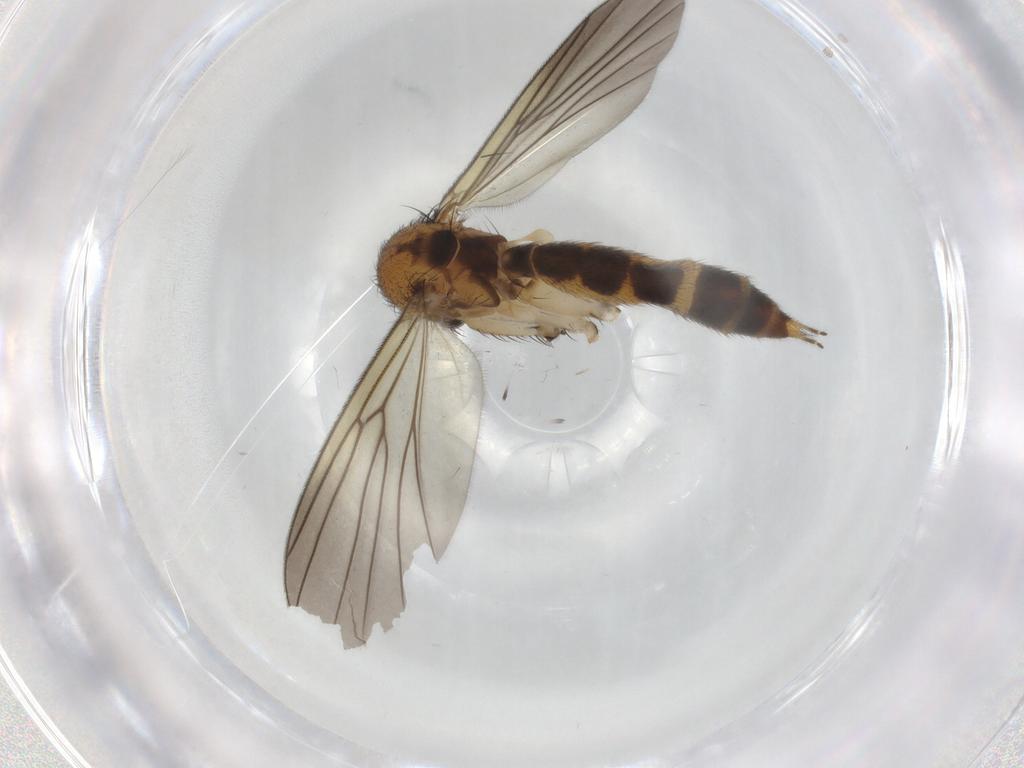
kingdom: Animalia
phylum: Arthropoda
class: Insecta
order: Diptera
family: Mycetophilidae
